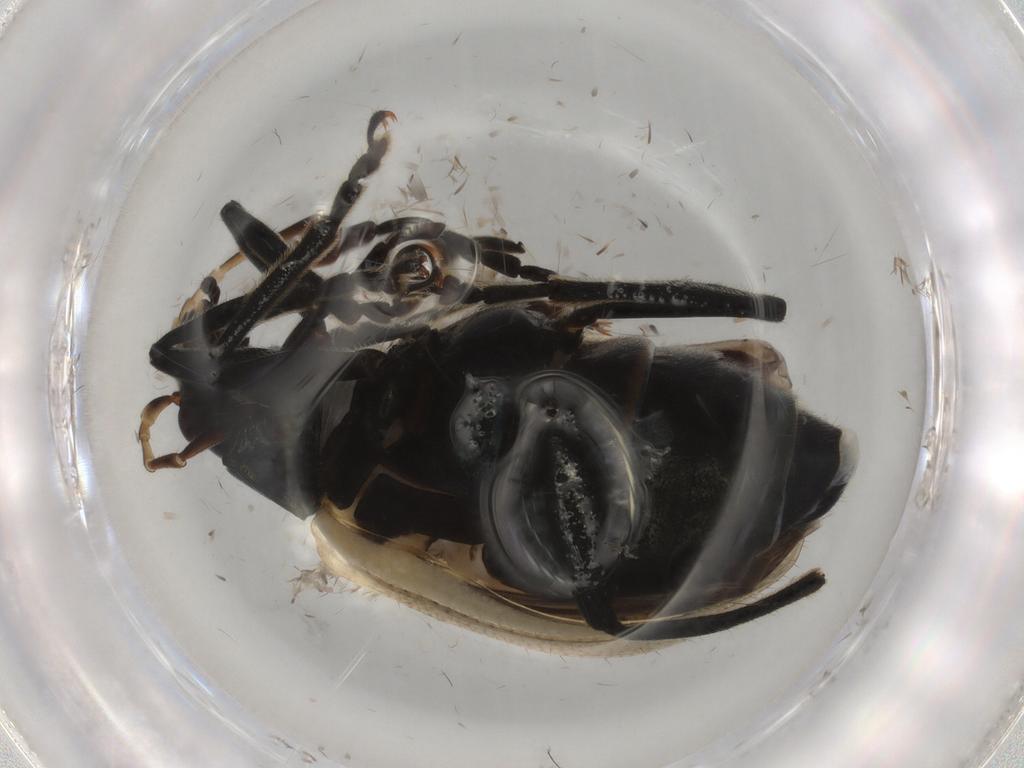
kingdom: Animalia
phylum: Arthropoda
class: Insecta
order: Coleoptera
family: Chrysomelidae
